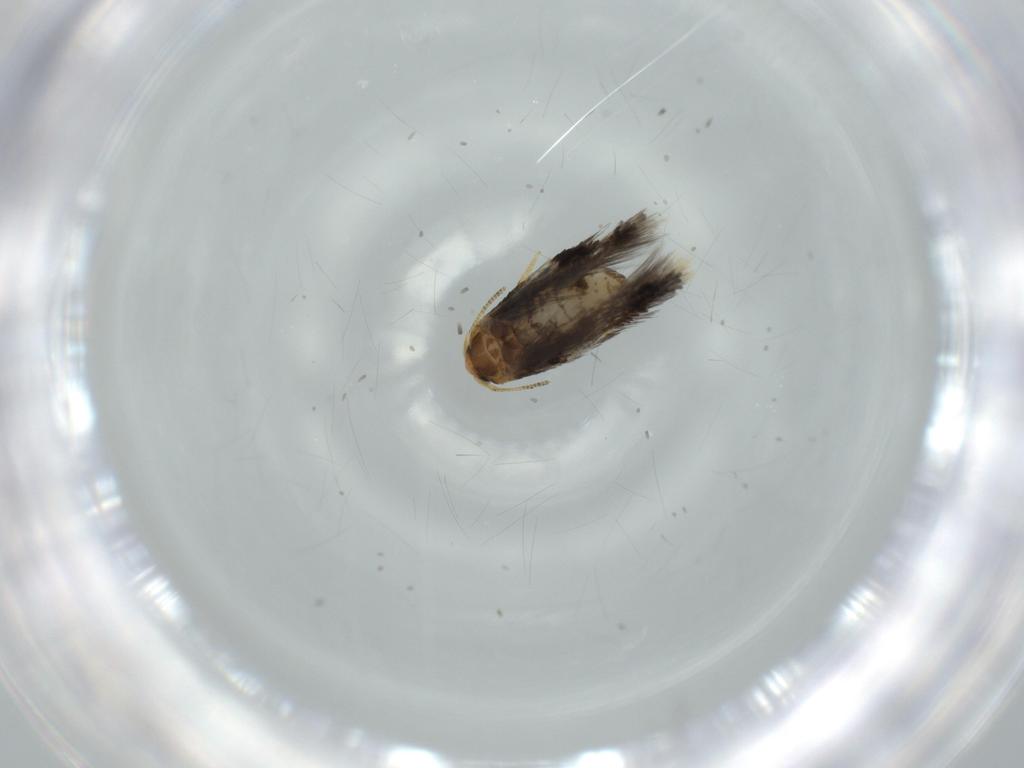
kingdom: Animalia
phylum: Arthropoda
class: Insecta
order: Lepidoptera
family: Nepticulidae
